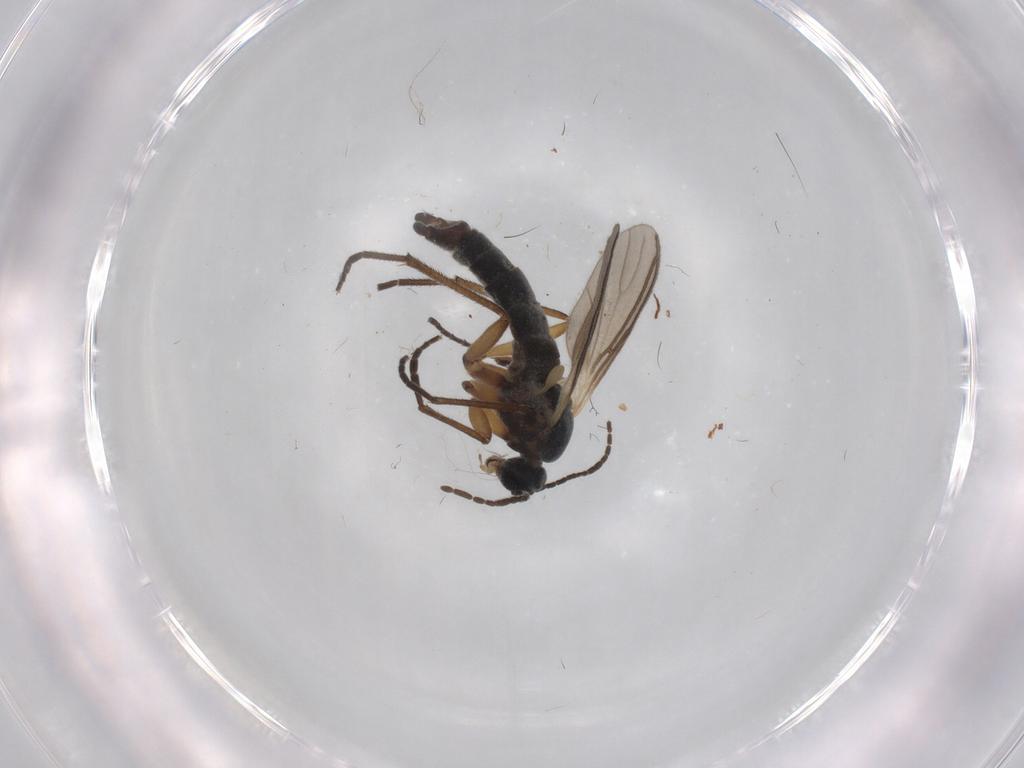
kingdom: Animalia
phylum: Arthropoda
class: Insecta
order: Diptera
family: Sciaridae
